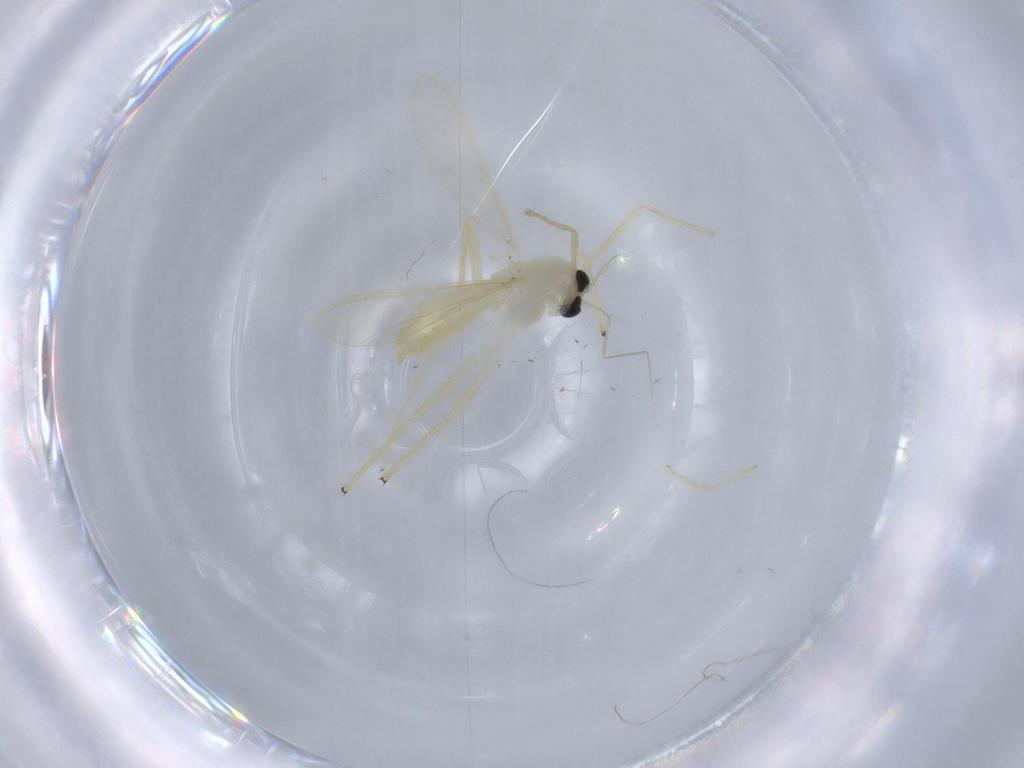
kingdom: Animalia
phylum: Arthropoda
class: Insecta
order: Diptera
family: Chironomidae
